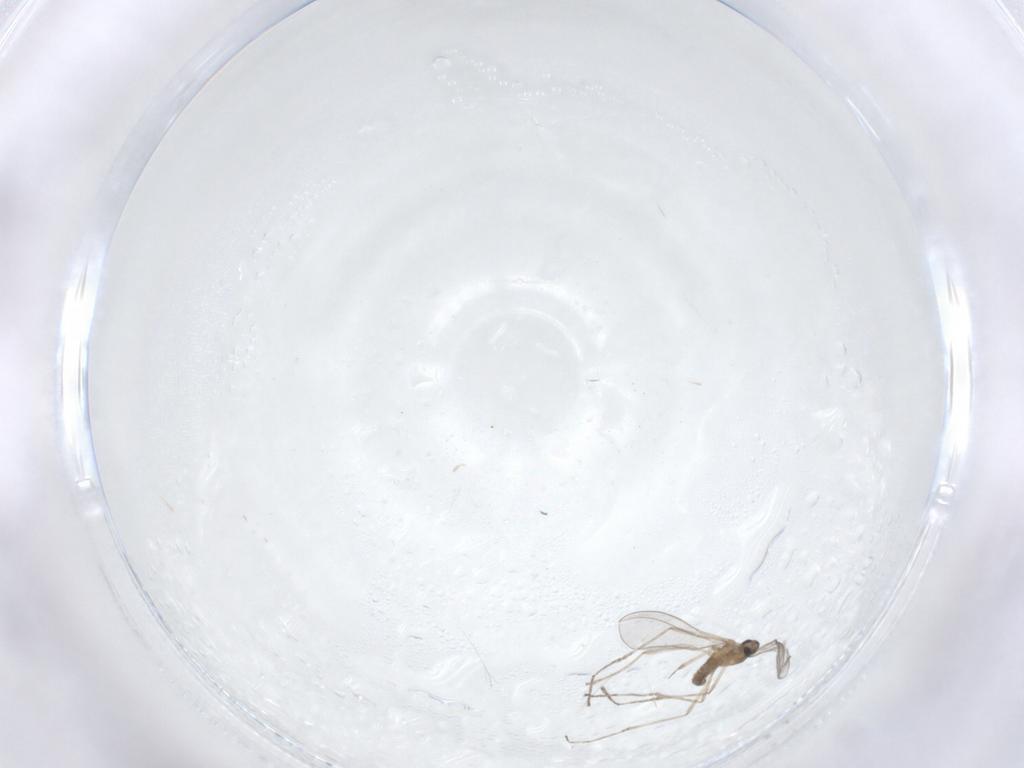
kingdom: Animalia
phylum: Arthropoda
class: Insecta
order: Diptera
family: Cecidomyiidae
